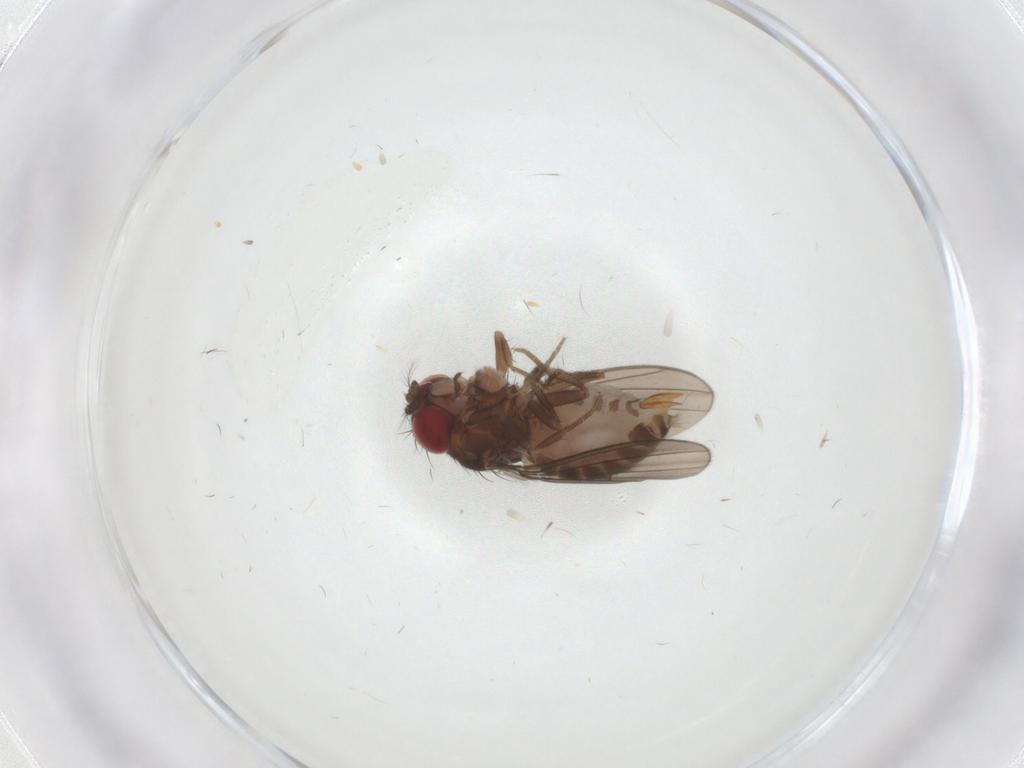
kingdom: Animalia
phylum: Arthropoda
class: Insecta
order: Diptera
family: Drosophilidae
